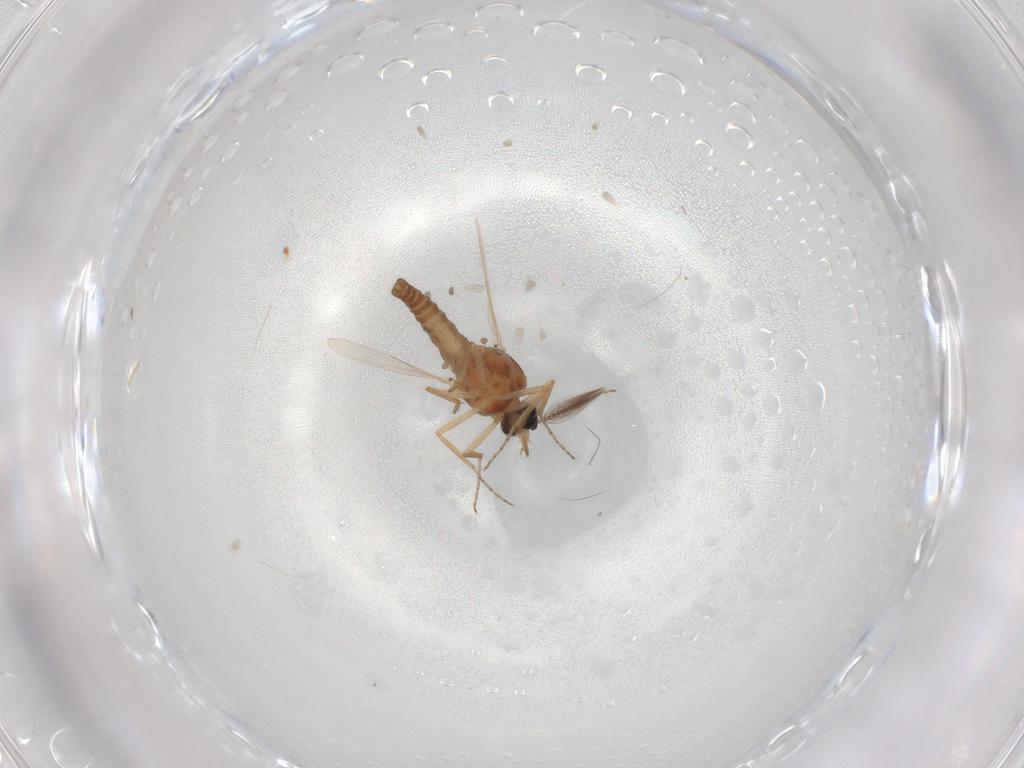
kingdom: Animalia
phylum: Arthropoda
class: Insecta
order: Diptera
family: Ceratopogonidae
